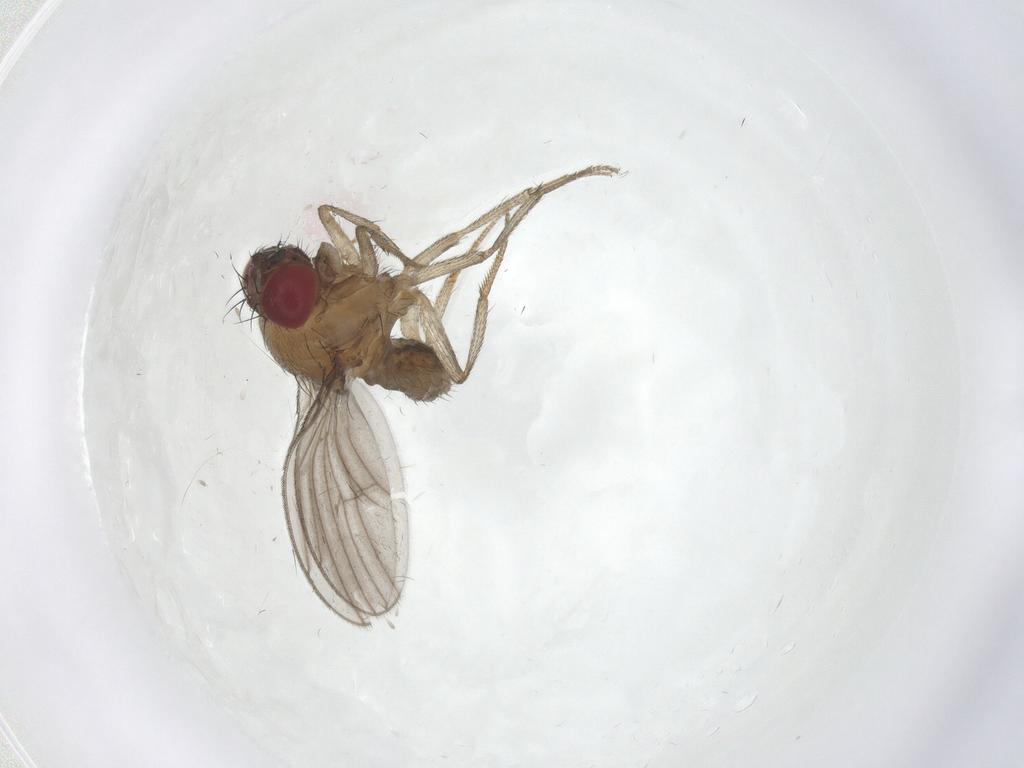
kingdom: Animalia
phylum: Arthropoda
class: Insecta
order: Diptera
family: Drosophilidae
